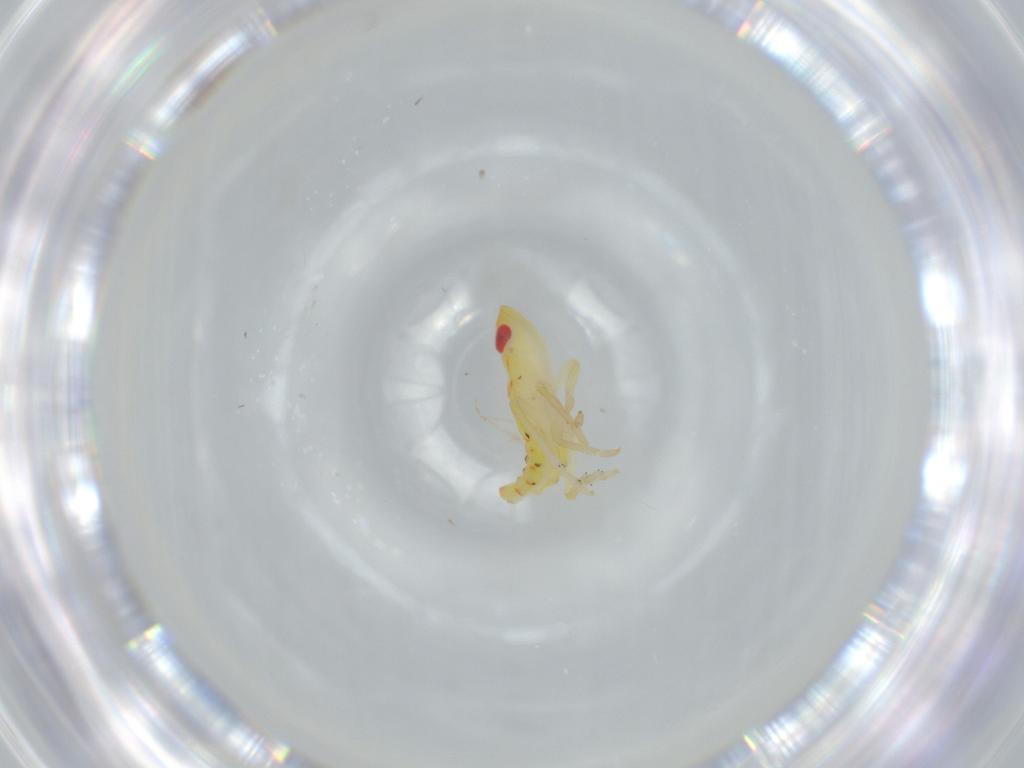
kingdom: Animalia
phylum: Arthropoda
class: Insecta
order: Hemiptera
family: Tropiduchidae
